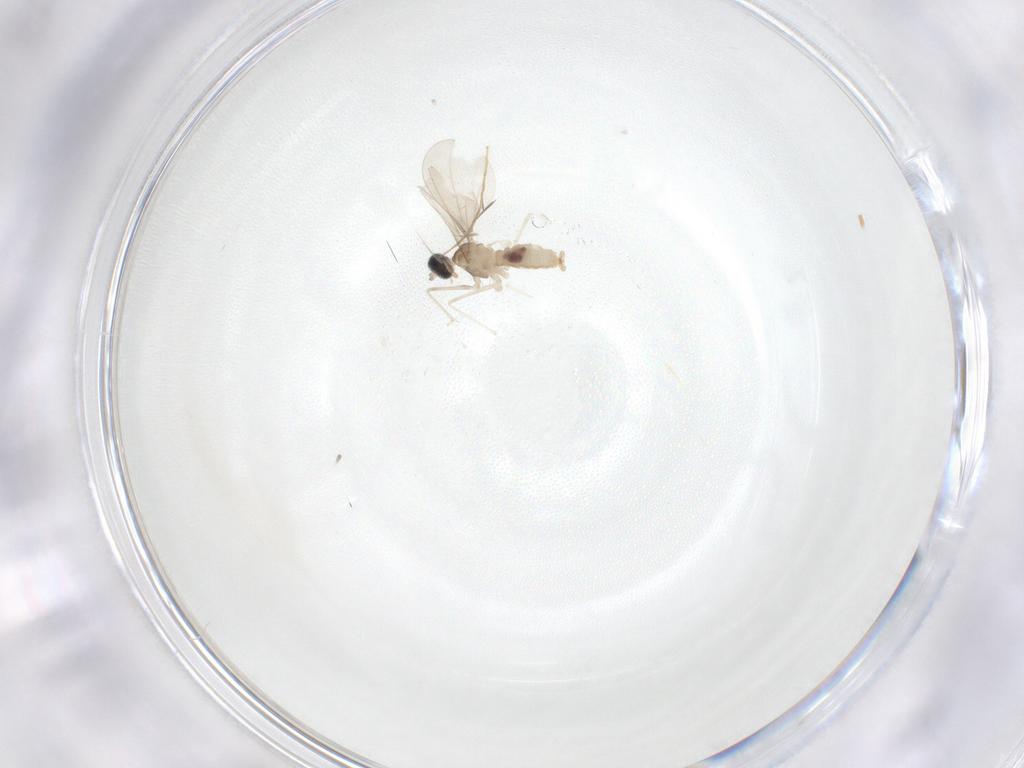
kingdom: Animalia
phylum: Arthropoda
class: Insecta
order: Diptera
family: Cecidomyiidae
